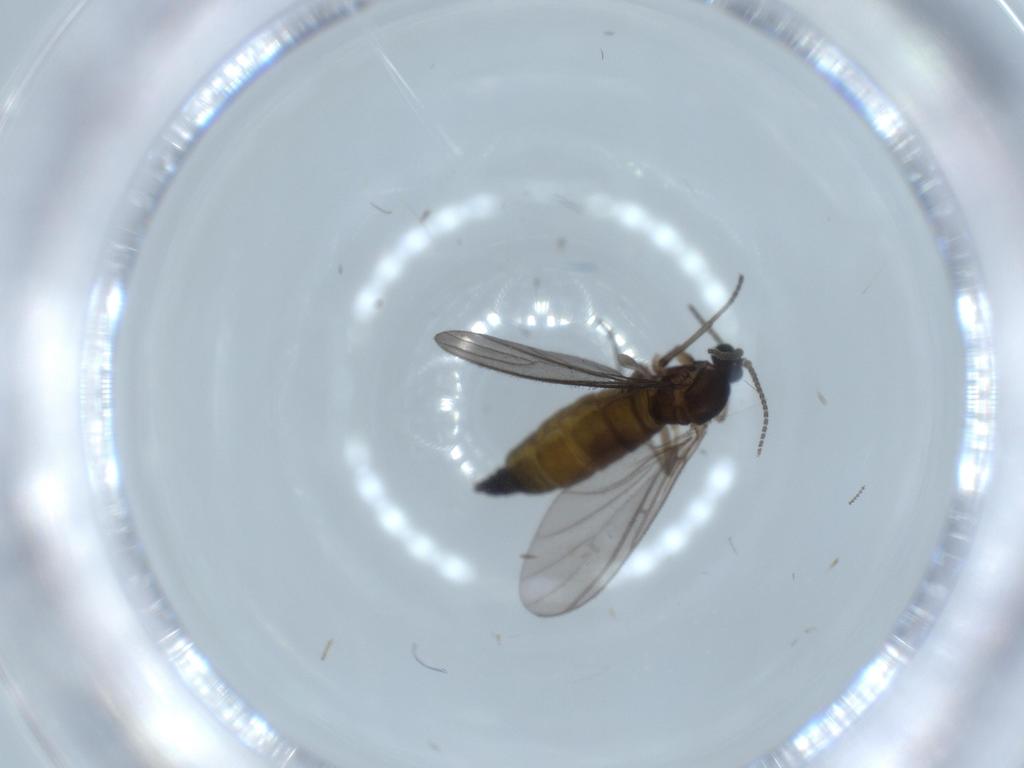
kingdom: Animalia
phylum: Arthropoda
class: Insecta
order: Diptera
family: Sciaridae
